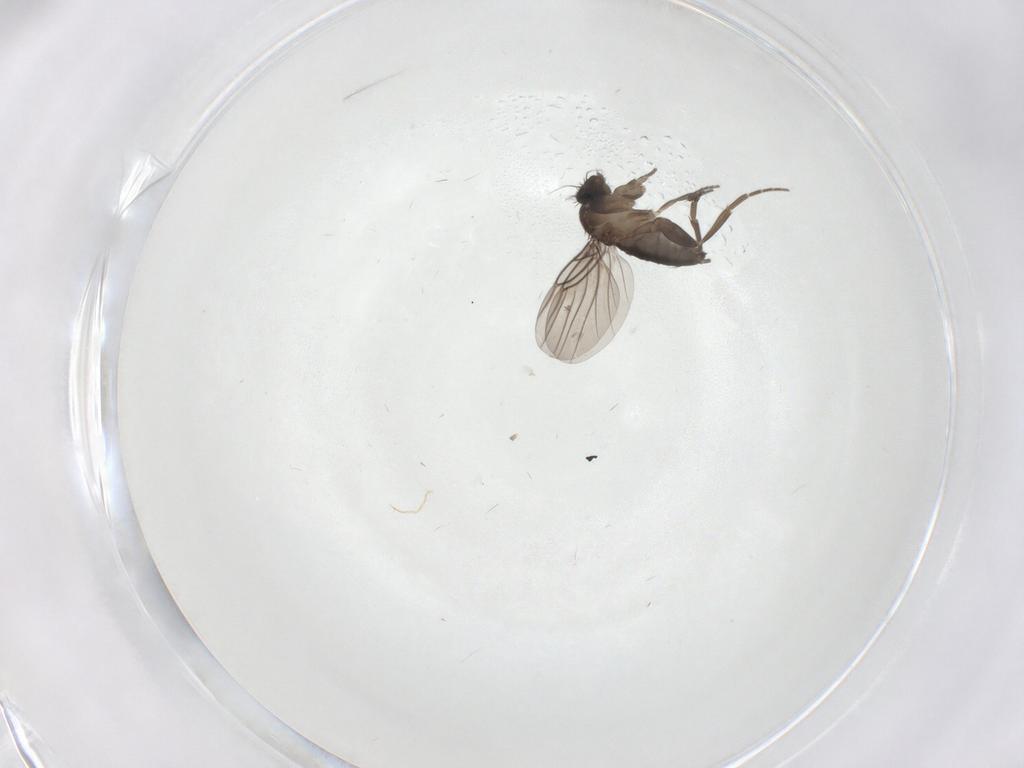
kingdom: Animalia
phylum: Arthropoda
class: Insecta
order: Diptera
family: Phoridae
